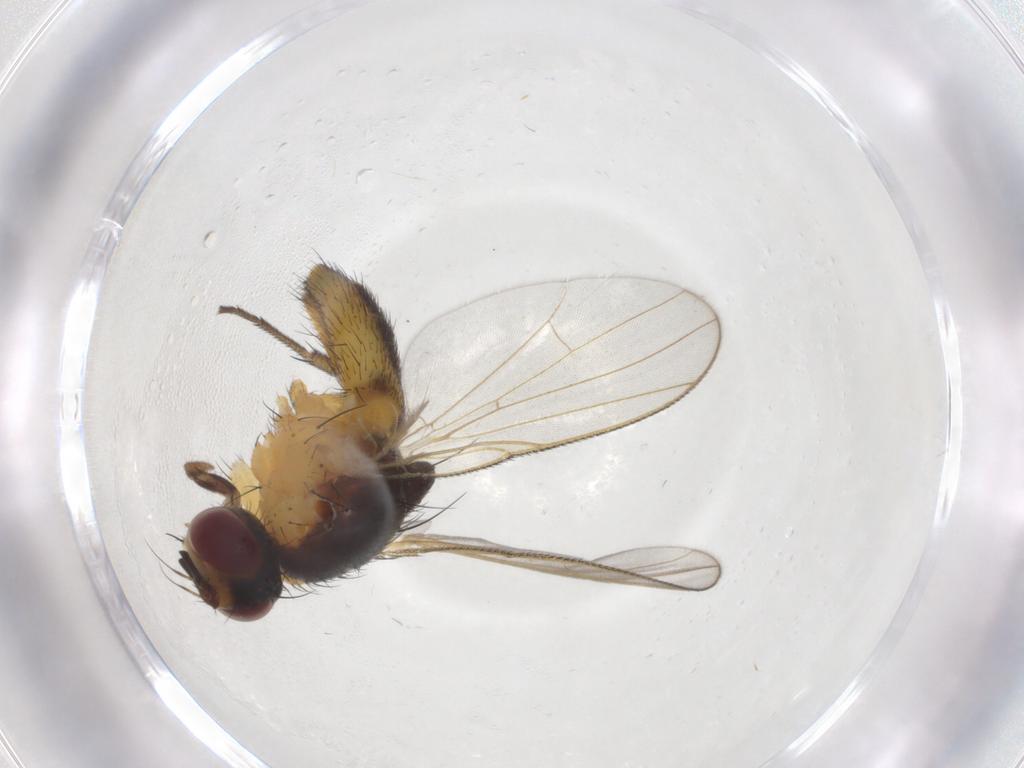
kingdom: Animalia
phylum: Arthropoda
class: Insecta
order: Diptera
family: Muscidae
